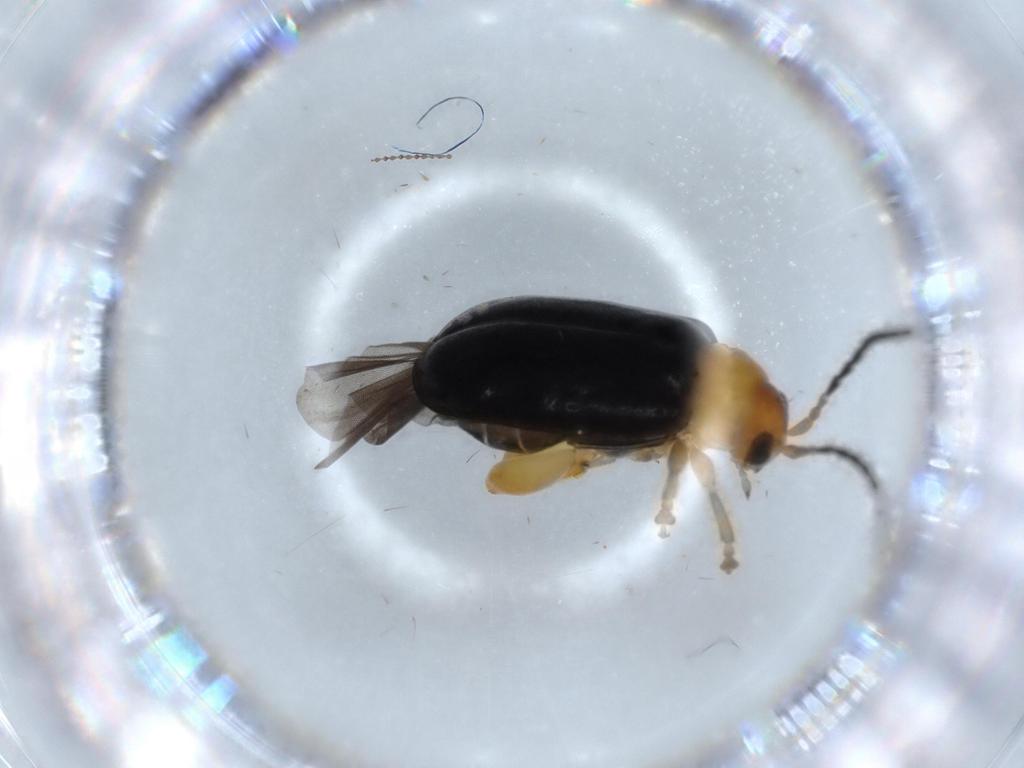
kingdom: Animalia
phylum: Arthropoda
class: Insecta
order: Coleoptera
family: Chrysomelidae
